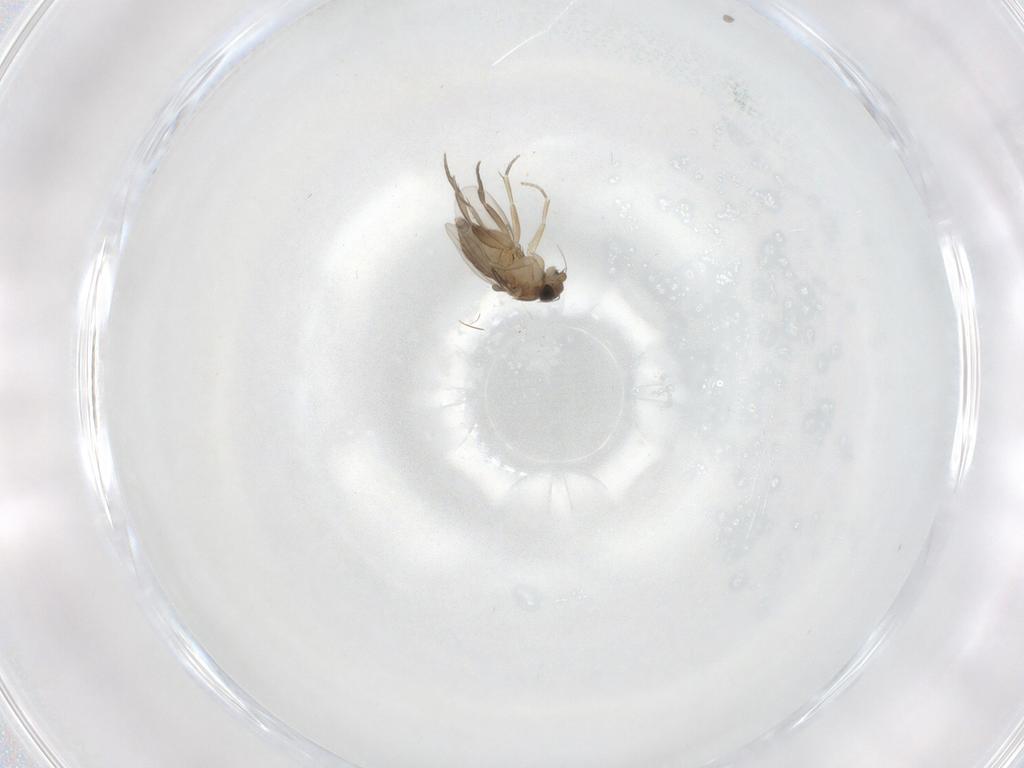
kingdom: Animalia
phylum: Arthropoda
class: Insecta
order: Diptera
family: Phoridae
